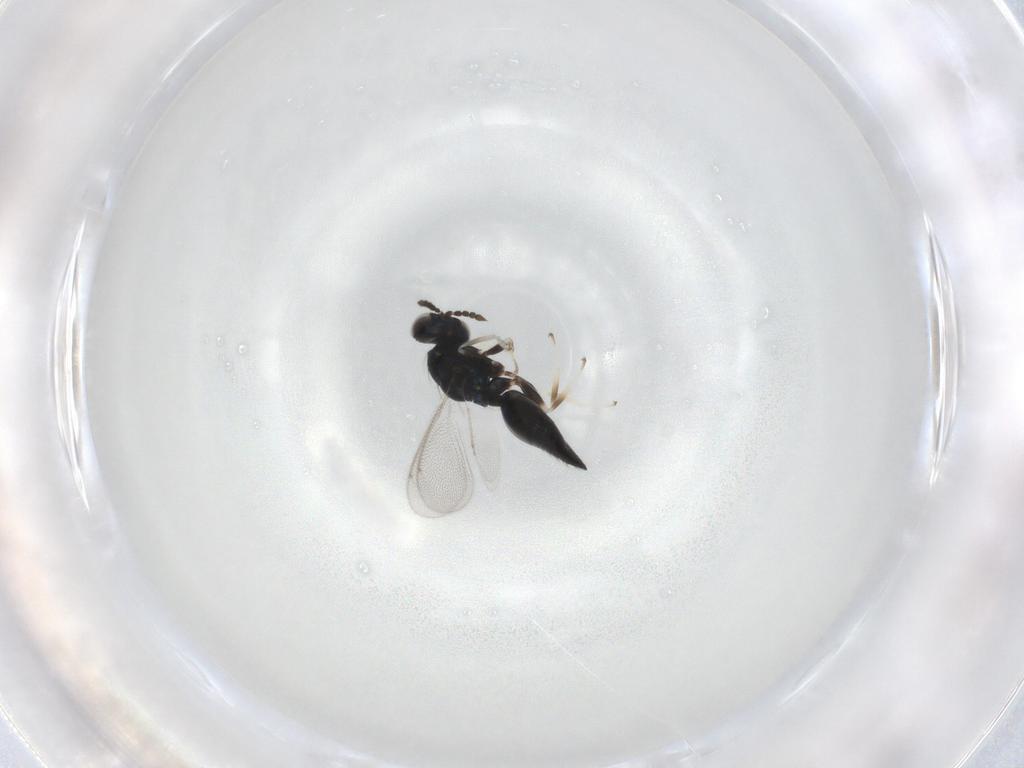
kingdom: Animalia
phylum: Arthropoda
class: Insecta
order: Hymenoptera
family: Eulophidae
